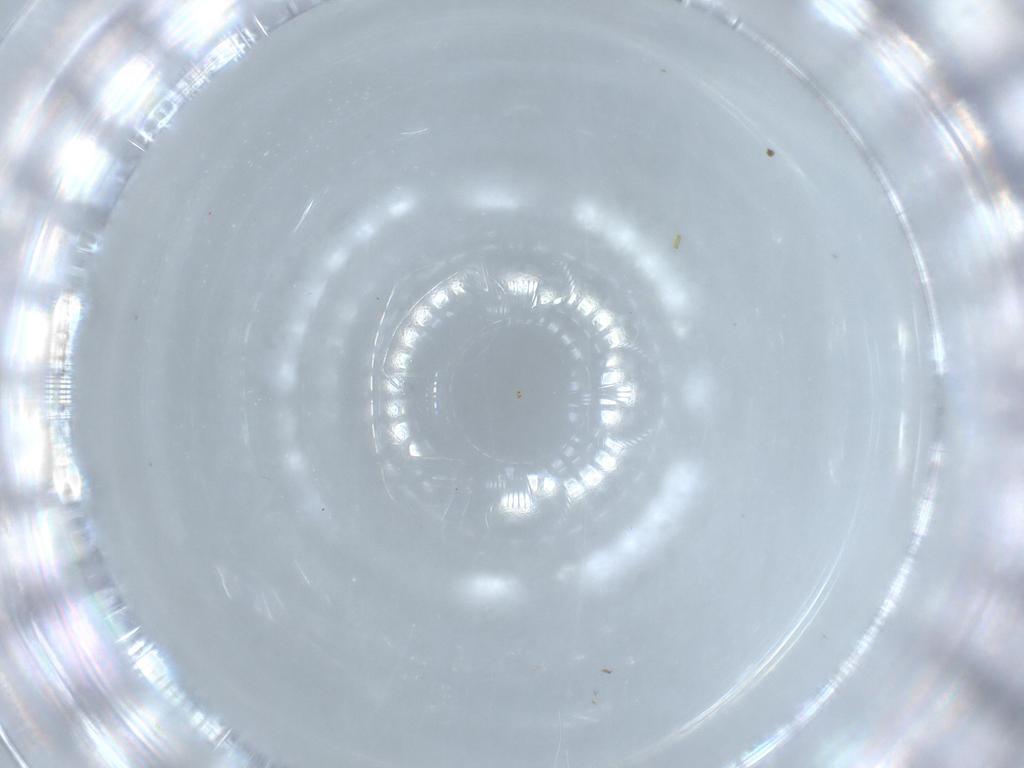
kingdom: Animalia
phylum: Arthropoda
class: Insecta
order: Diptera
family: Lauxaniidae
